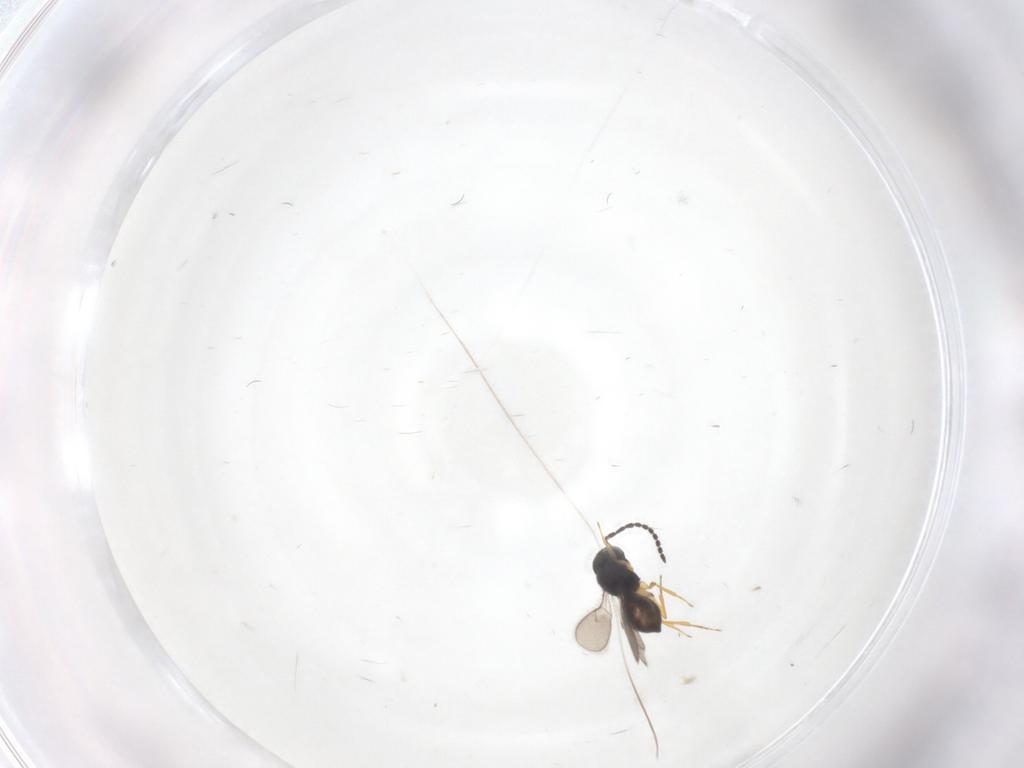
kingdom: Animalia
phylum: Arthropoda
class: Insecta
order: Hymenoptera
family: Scelionidae
